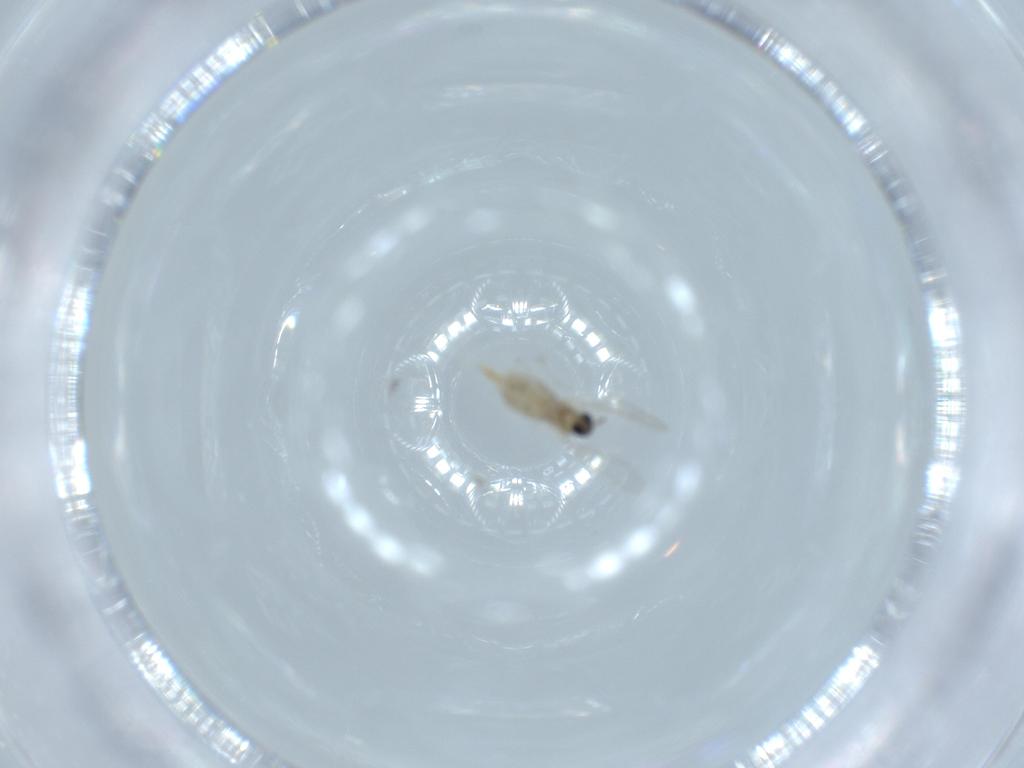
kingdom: Animalia
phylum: Arthropoda
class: Insecta
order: Diptera
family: Cecidomyiidae
